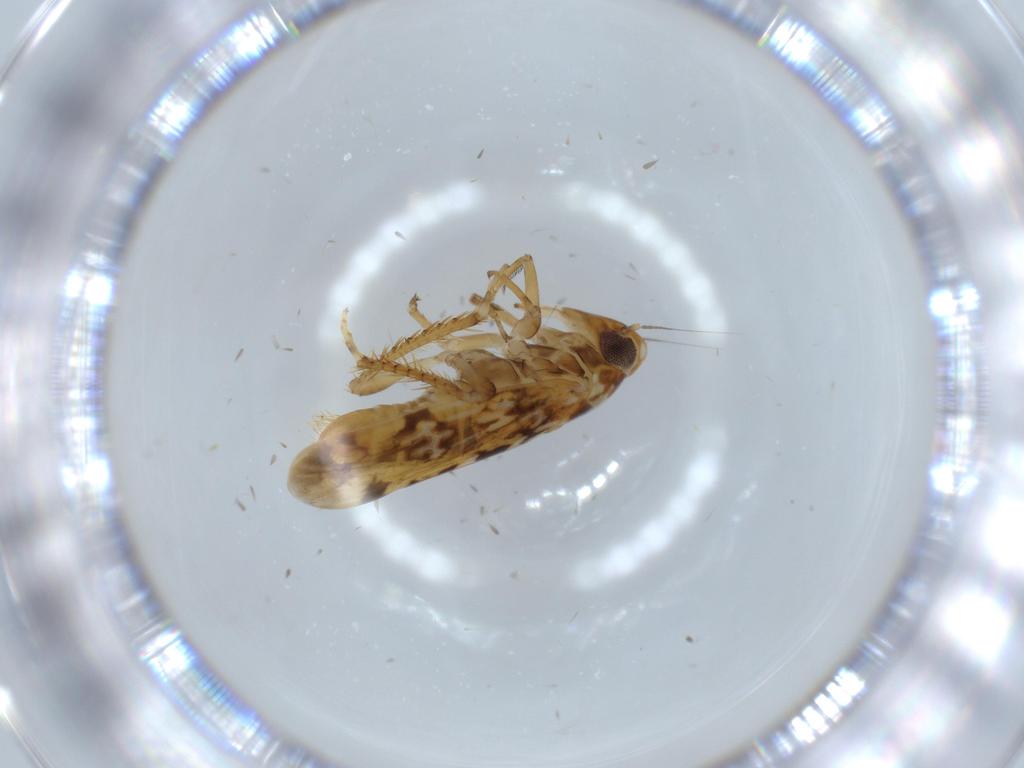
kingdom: Animalia
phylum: Arthropoda
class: Insecta
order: Hemiptera
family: Cicadellidae
